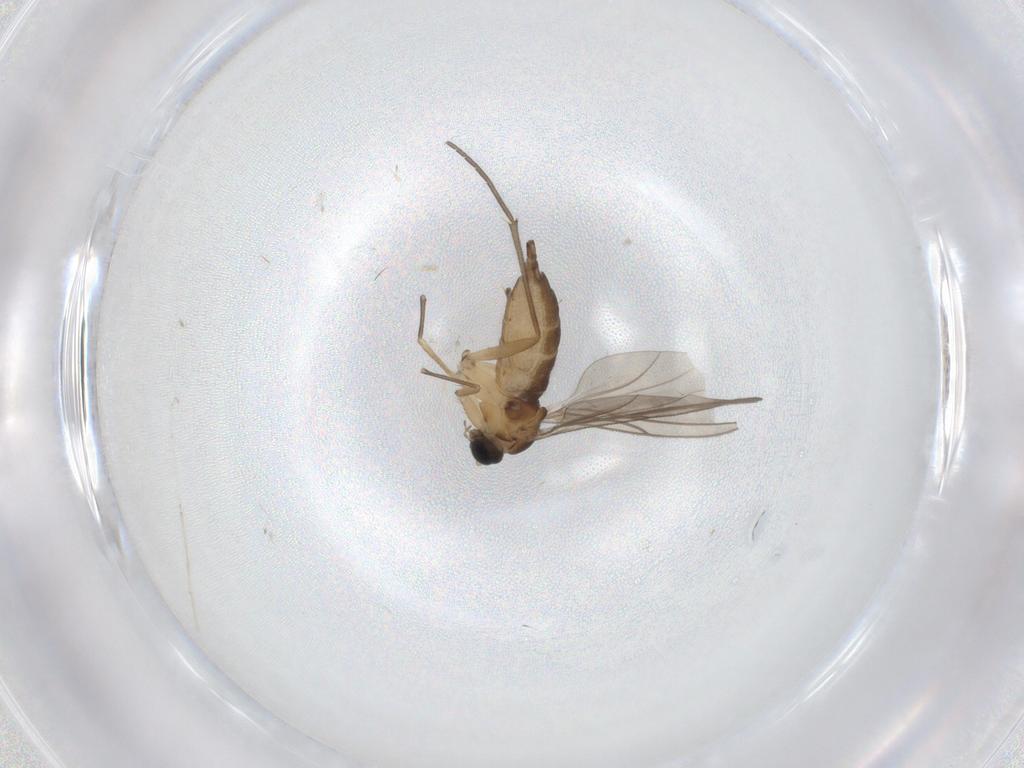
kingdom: Animalia
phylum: Arthropoda
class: Insecta
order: Diptera
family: Sciaridae
